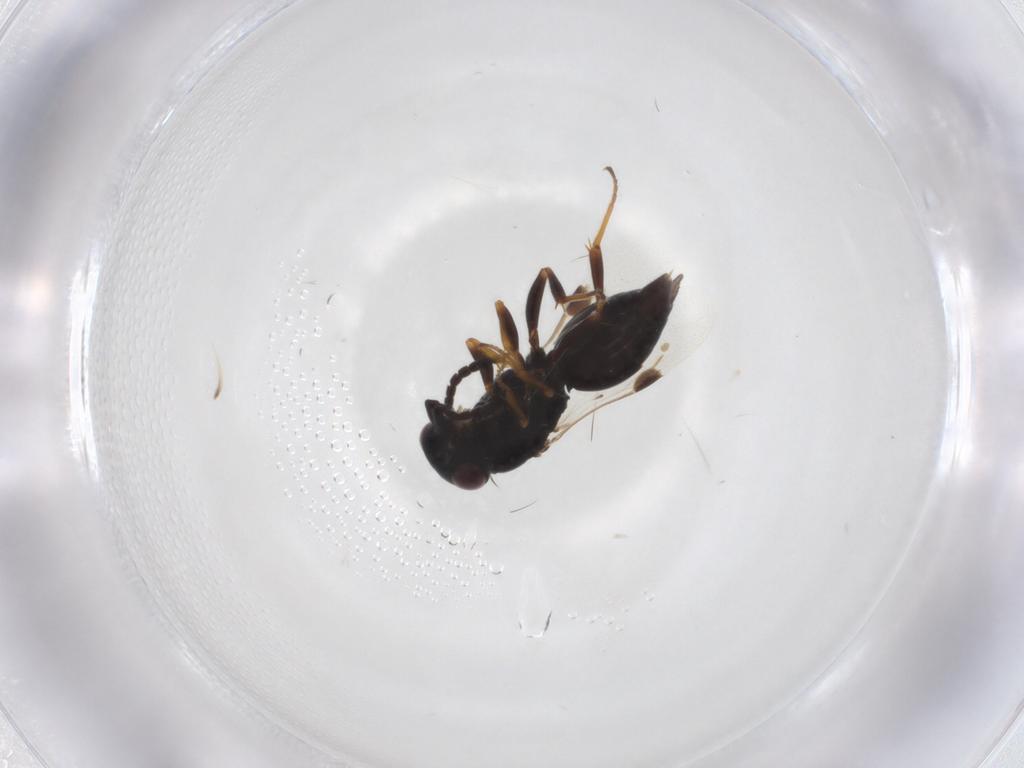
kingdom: Animalia
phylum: Arthropoda
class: Insecta
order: Hymenoptera
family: Megaspilidae
